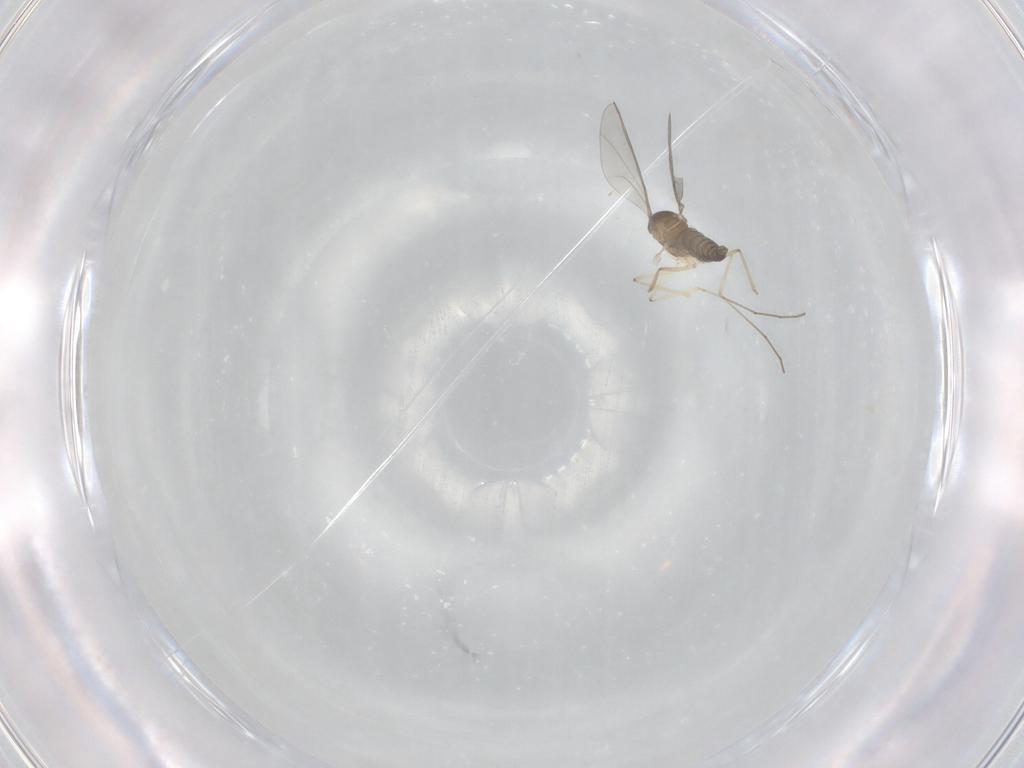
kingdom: Animalia
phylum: Arthropoda
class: Insecta
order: Diptera
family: Cecidomyiidae
